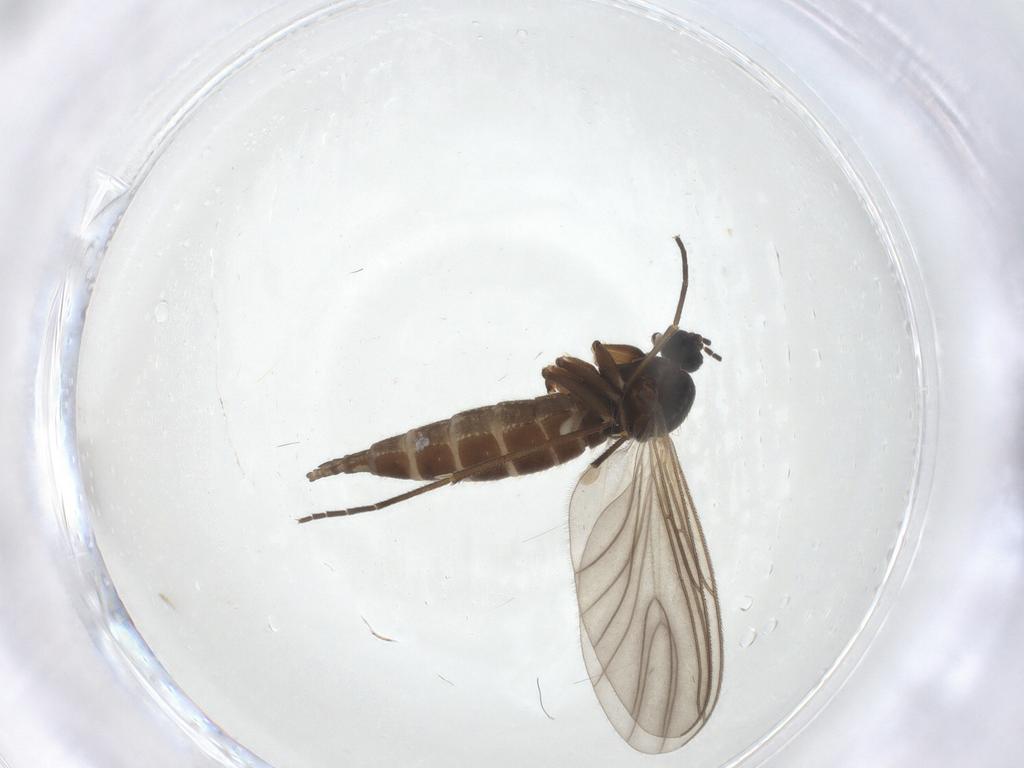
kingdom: Animalia
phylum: Arthropoda
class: Insecta
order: Diptera
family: Sciaridae
